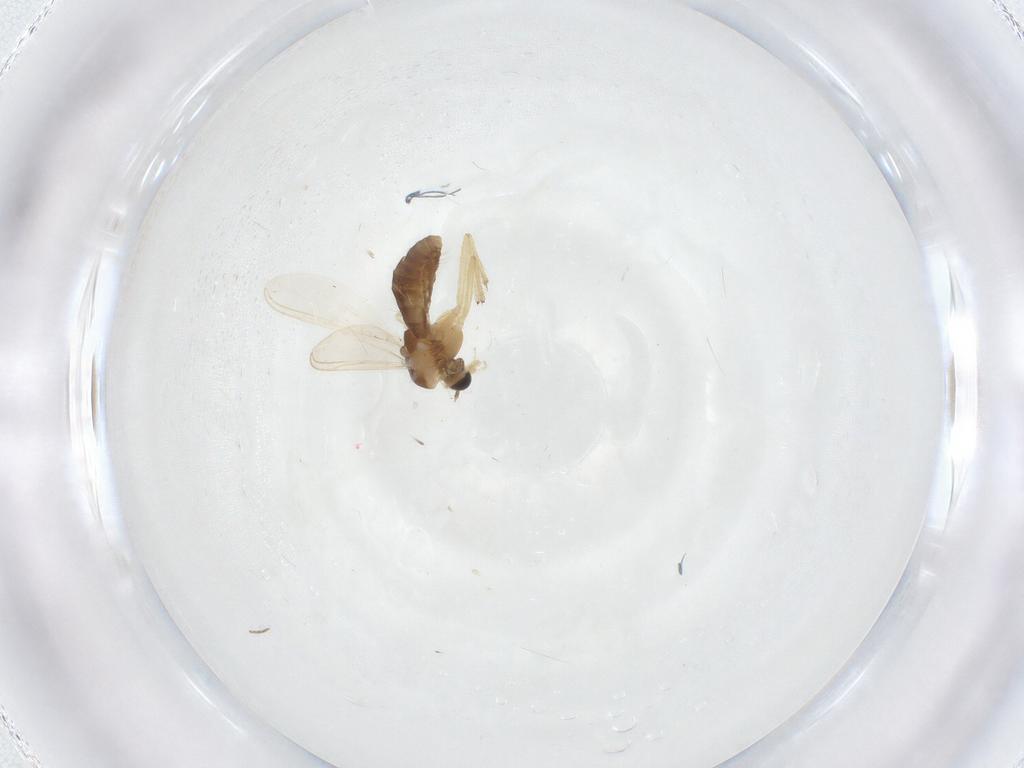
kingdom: Animalia
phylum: Arthropoda
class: Insecta
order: Diptera
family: Chironomidae
